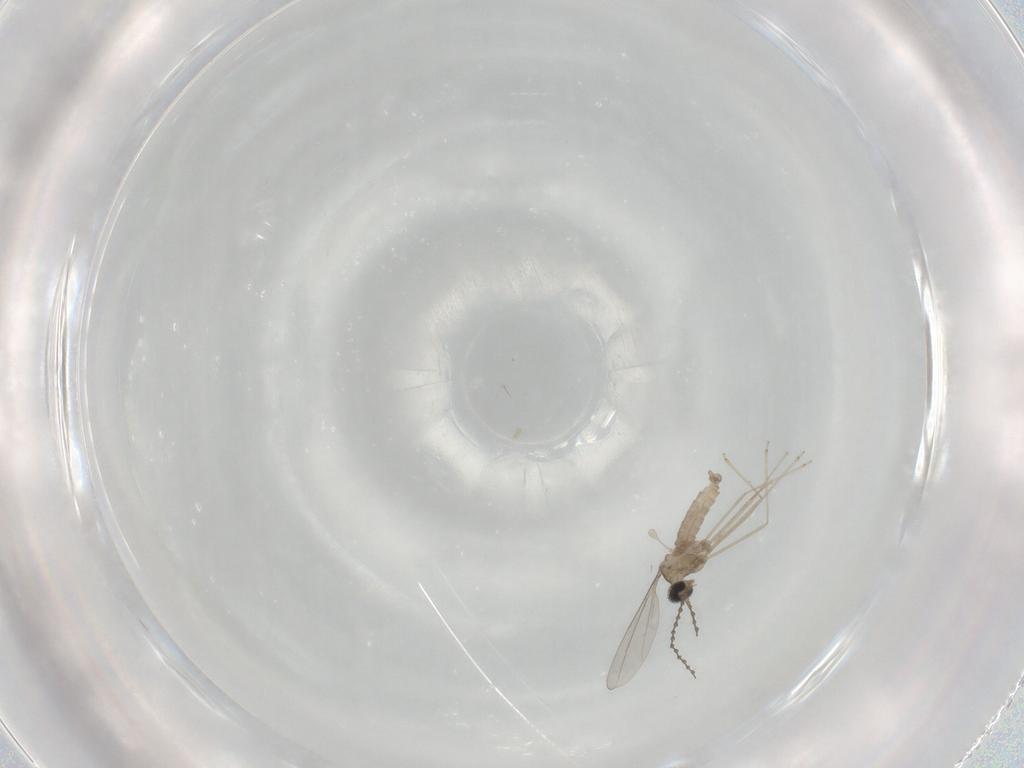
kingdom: Animalia
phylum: Arthropoda
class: Insecta
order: Diptera
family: Cecidomyiidae
